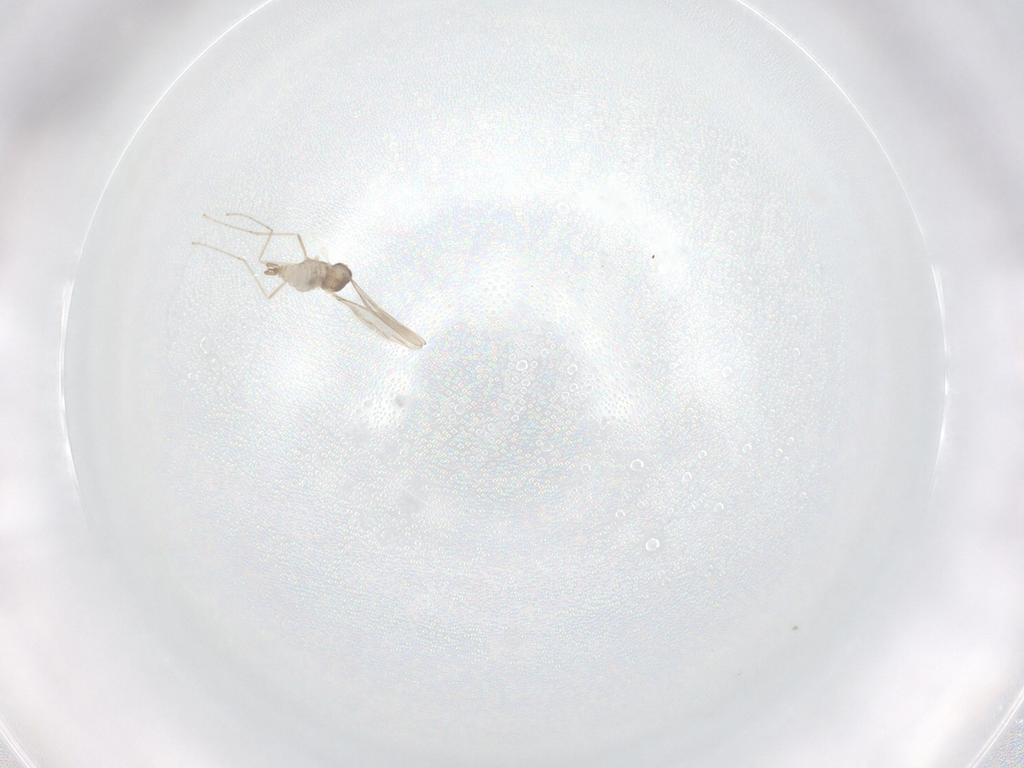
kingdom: Animalia
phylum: Arthropoda
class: Insecta
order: Diptera
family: Cecidomyiidae
